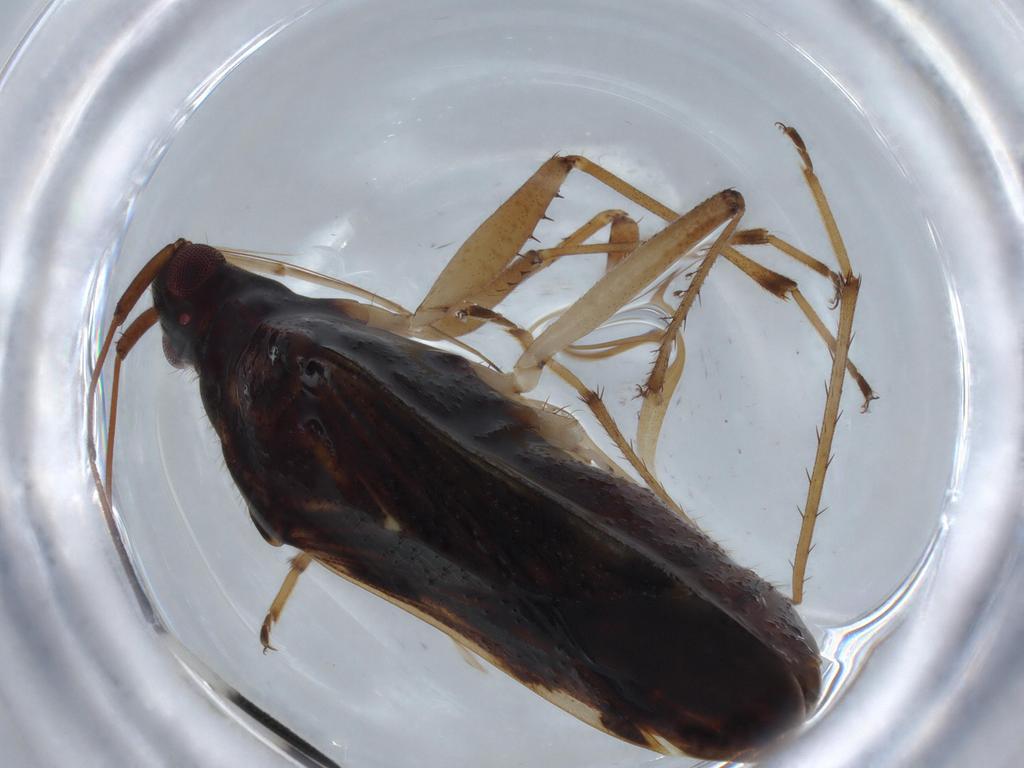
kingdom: Animalia
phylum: Arthropoda
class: Insecta
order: Hemiptera
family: Rhyparochromidae
